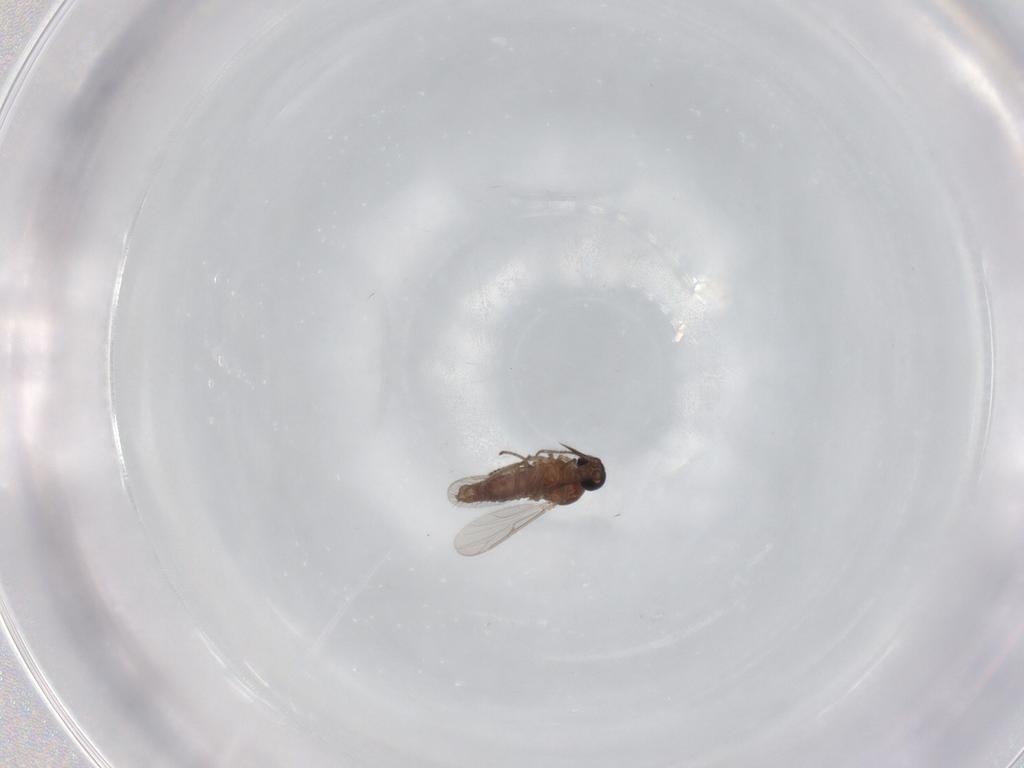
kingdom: Animalia
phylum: Arthropoda
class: Insecta
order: Diptera
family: Ceratopogonidae
